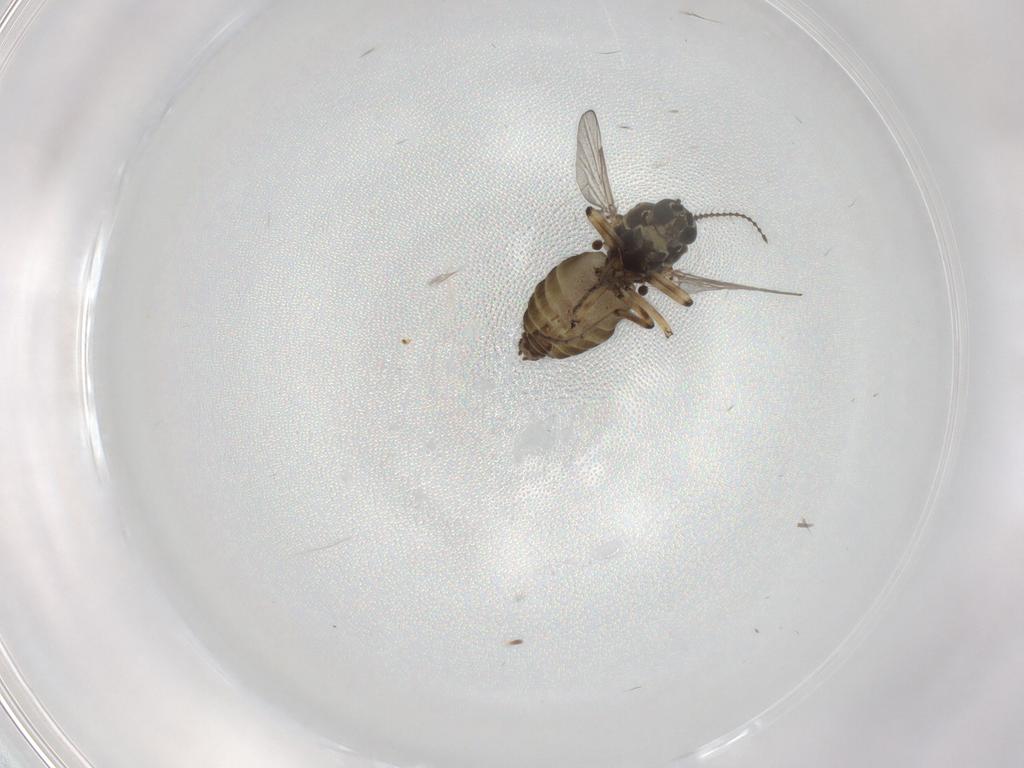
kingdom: Animalia
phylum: Arthropoda
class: Insecta
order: Diptera
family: Ceratopogonidae
